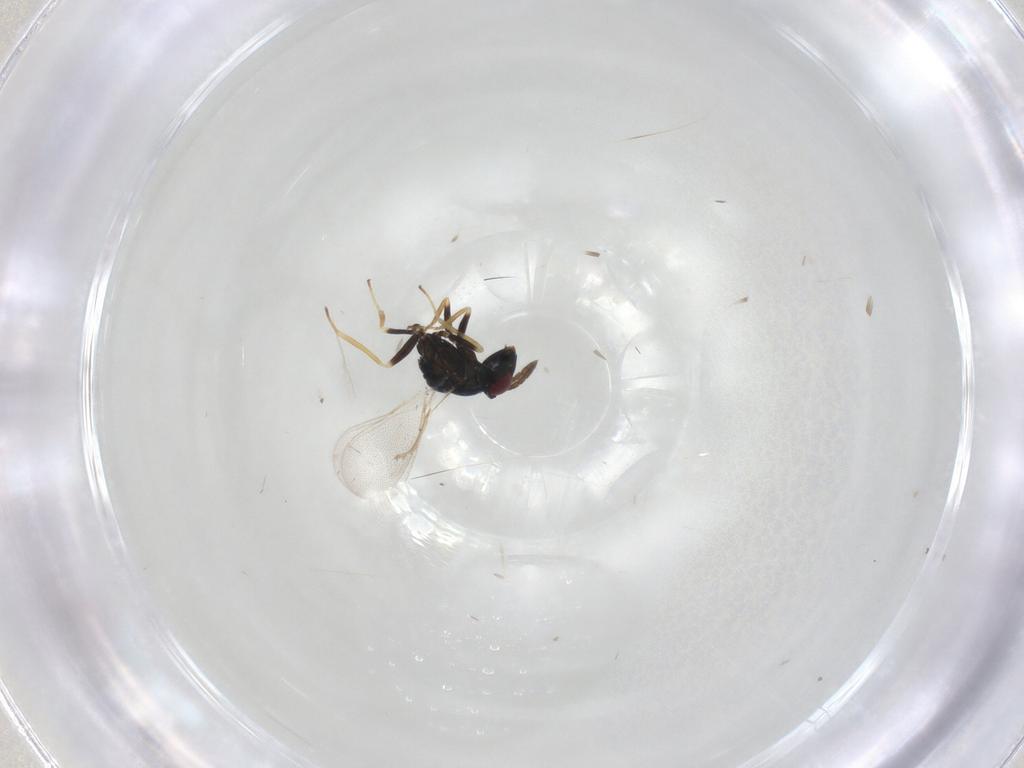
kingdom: Animalia
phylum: Arthropoda
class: Insecta
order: Hymenoptera
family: Eulophidae
